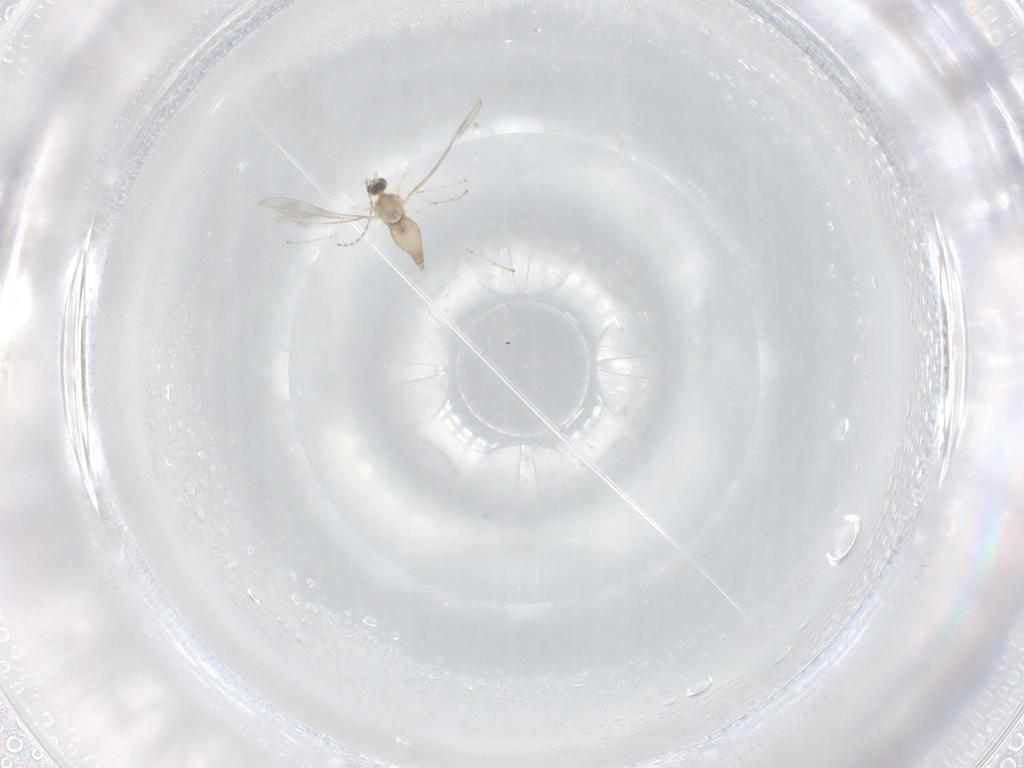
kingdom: Animalia
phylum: Arthropoda
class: Insecta
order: Diptera
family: Cecidomyiidae
